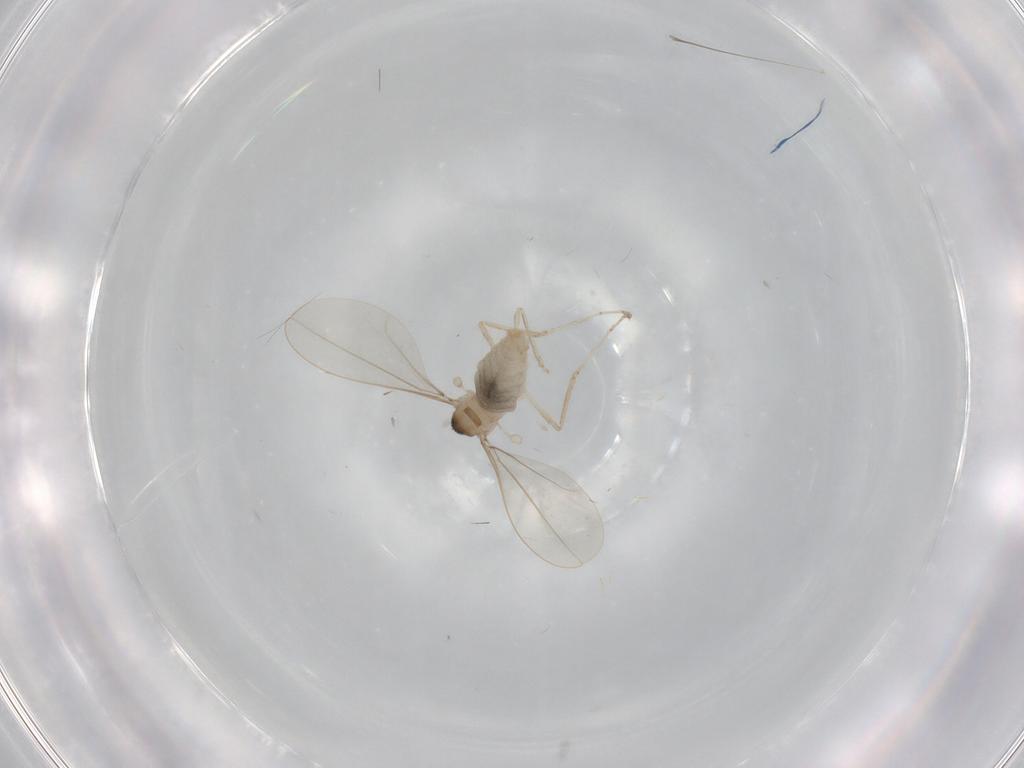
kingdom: Animalia
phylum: Arthropoda
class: Insecta
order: Diptera
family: Cecidomyiidae
